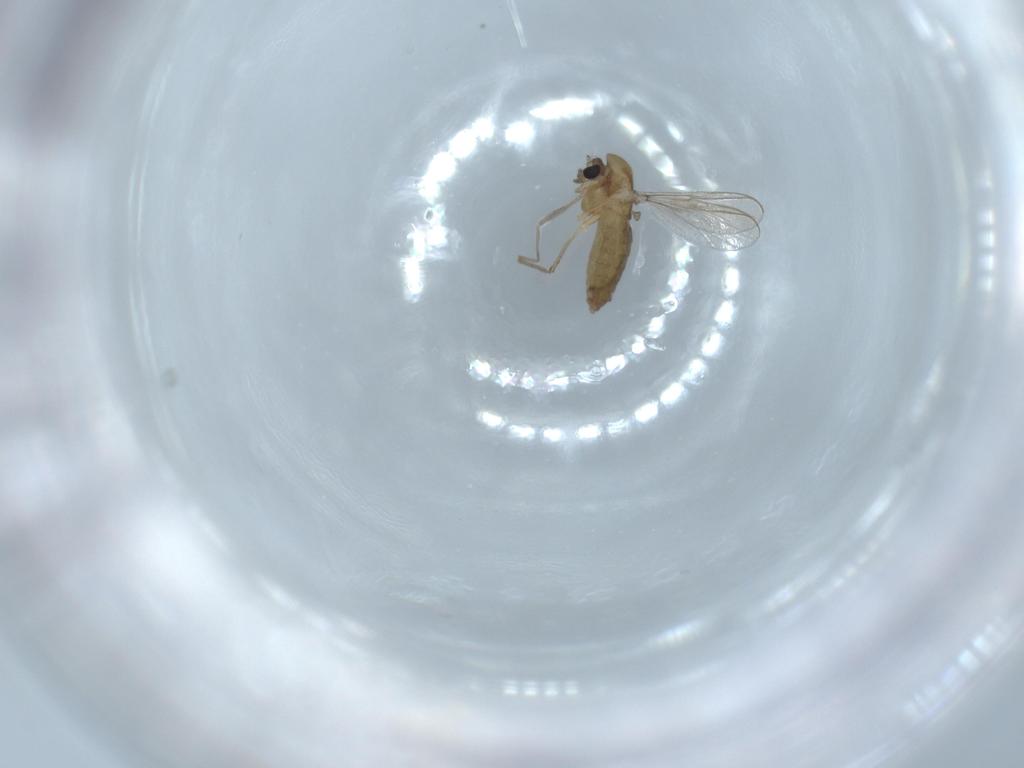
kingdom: Animalia
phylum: Arthropoda
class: Insecta
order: Diptera
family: Chironomidae
